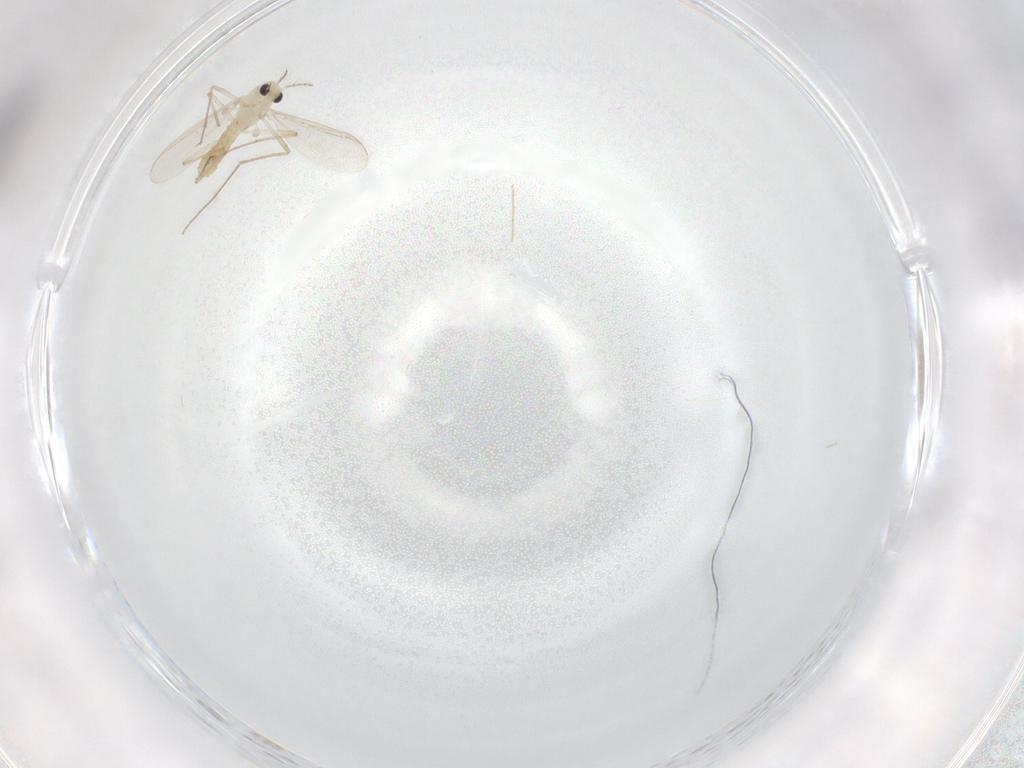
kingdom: Animalia
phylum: Arthropoda
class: Insecta
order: Diptera
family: Chironomidae
